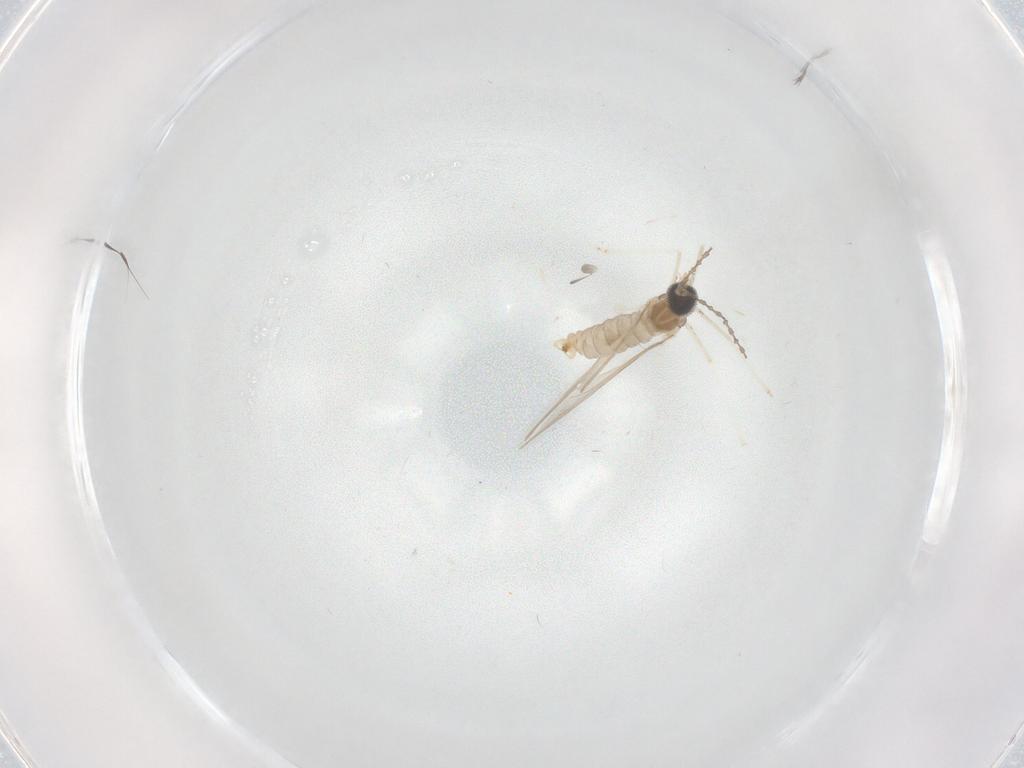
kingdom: Animalia
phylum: Arthropoda
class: Insecta
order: Diptera
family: Cecidomyiidae
